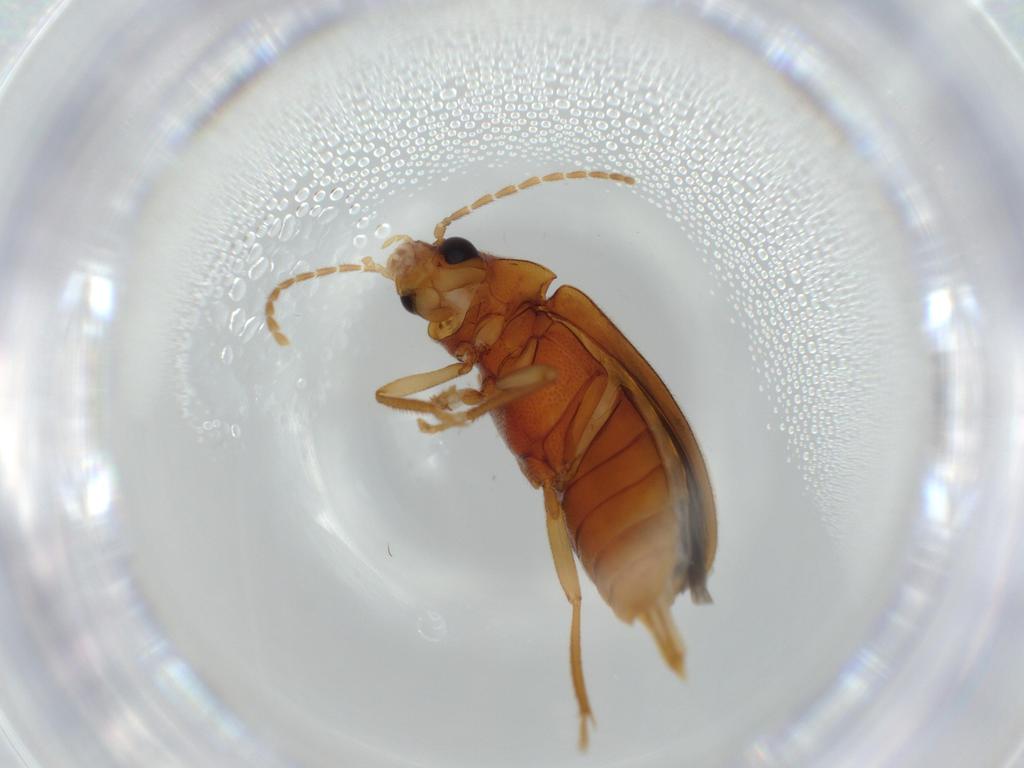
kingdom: Animalia
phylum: Arthropoda
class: Insecta
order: Coleoptera
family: Ptilodactylidae
